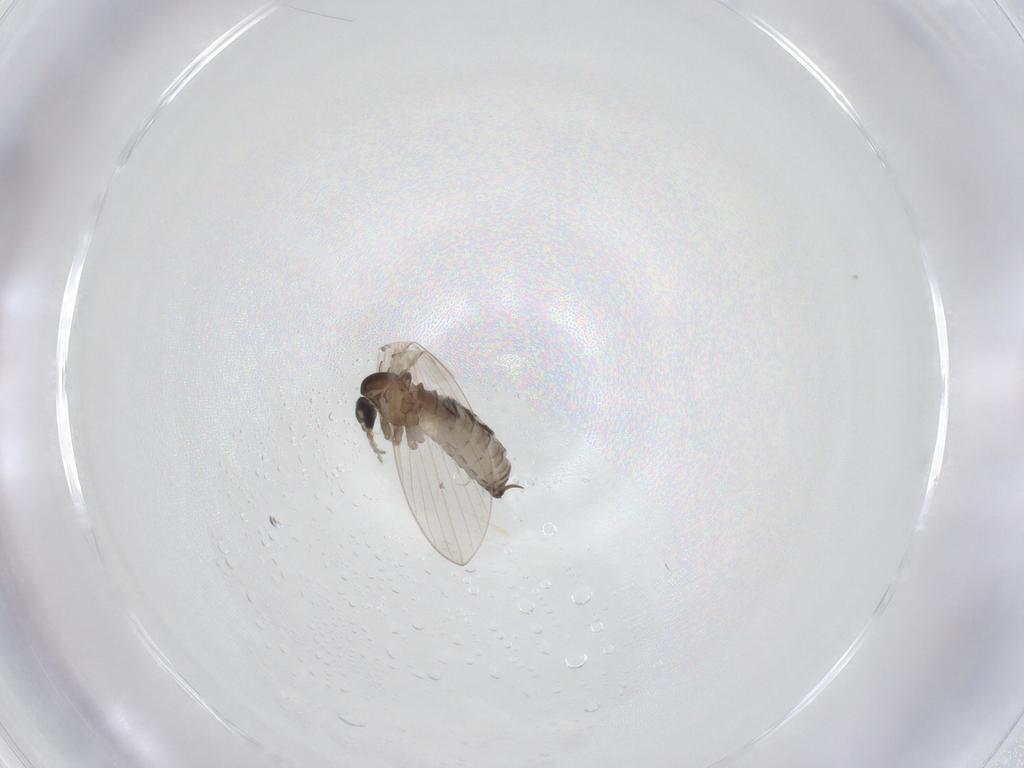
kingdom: Animalia
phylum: Arthropoda
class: Insecta
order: Diptera
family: Psychodidae
